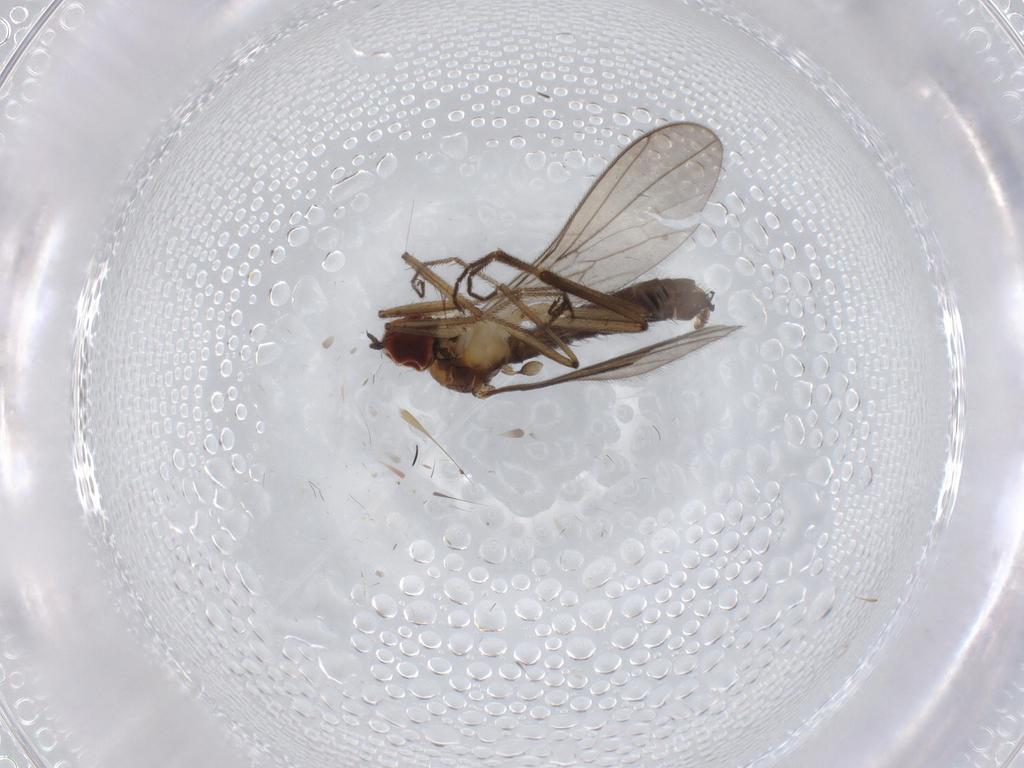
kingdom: Animalia
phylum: Arthropoda
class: Insecta
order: Diptera
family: Hybotidae
